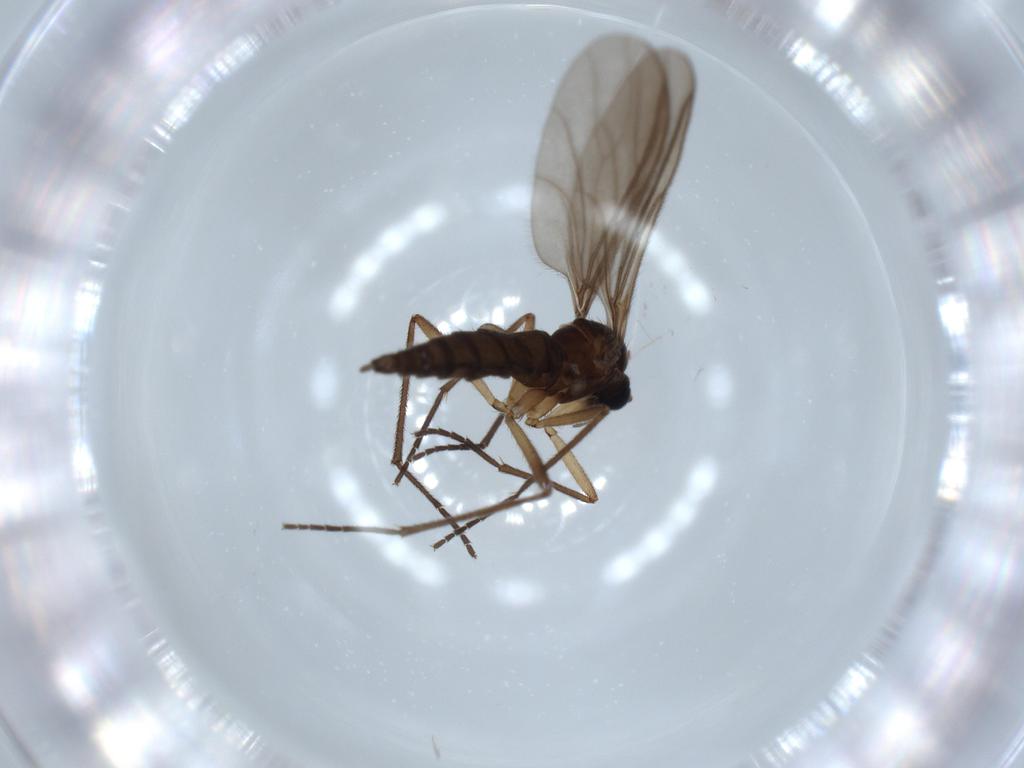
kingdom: Animalia
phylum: Arthropoda
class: Insecta
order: Diptera
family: Sciaridae
